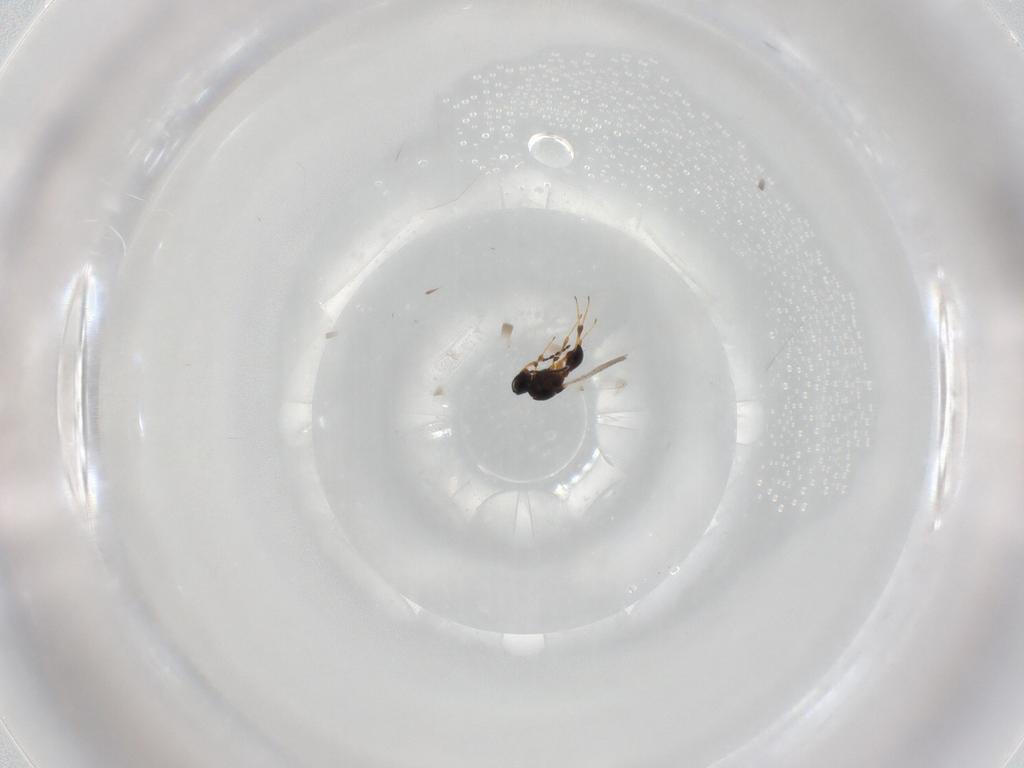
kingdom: Animalia
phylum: Arthropoda
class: Insecta
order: Hymenoptera
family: Platygastridae
